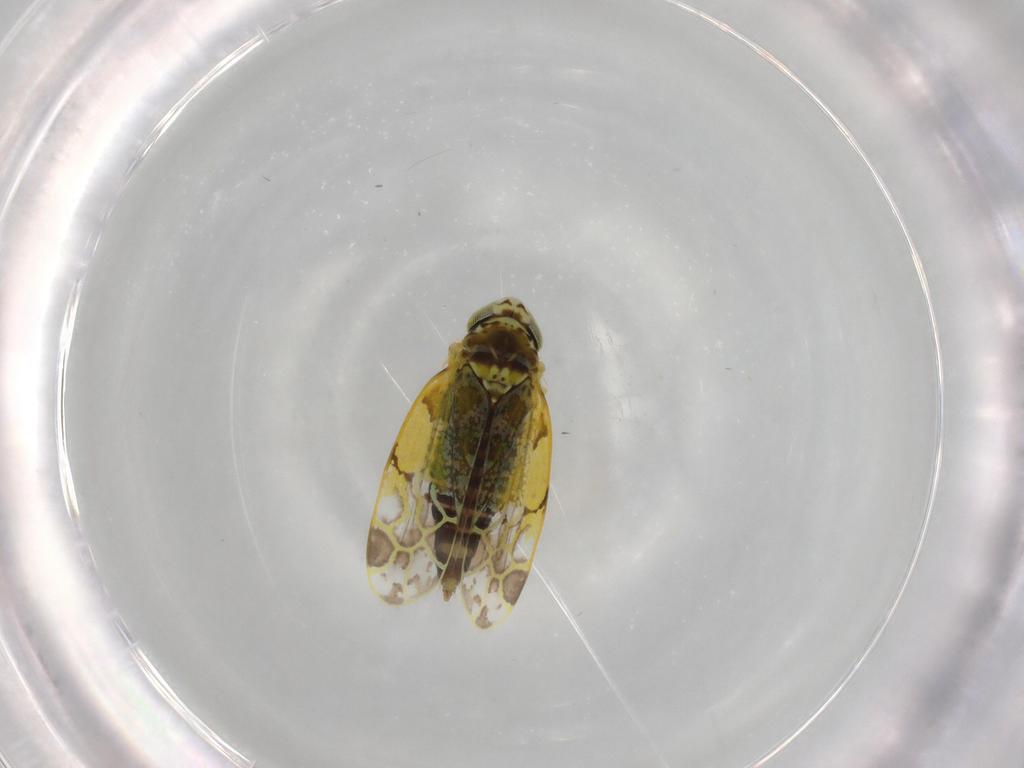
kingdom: Animalia
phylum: Arthropoda
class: Insecta
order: Hemiptera
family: Cicadellidae
